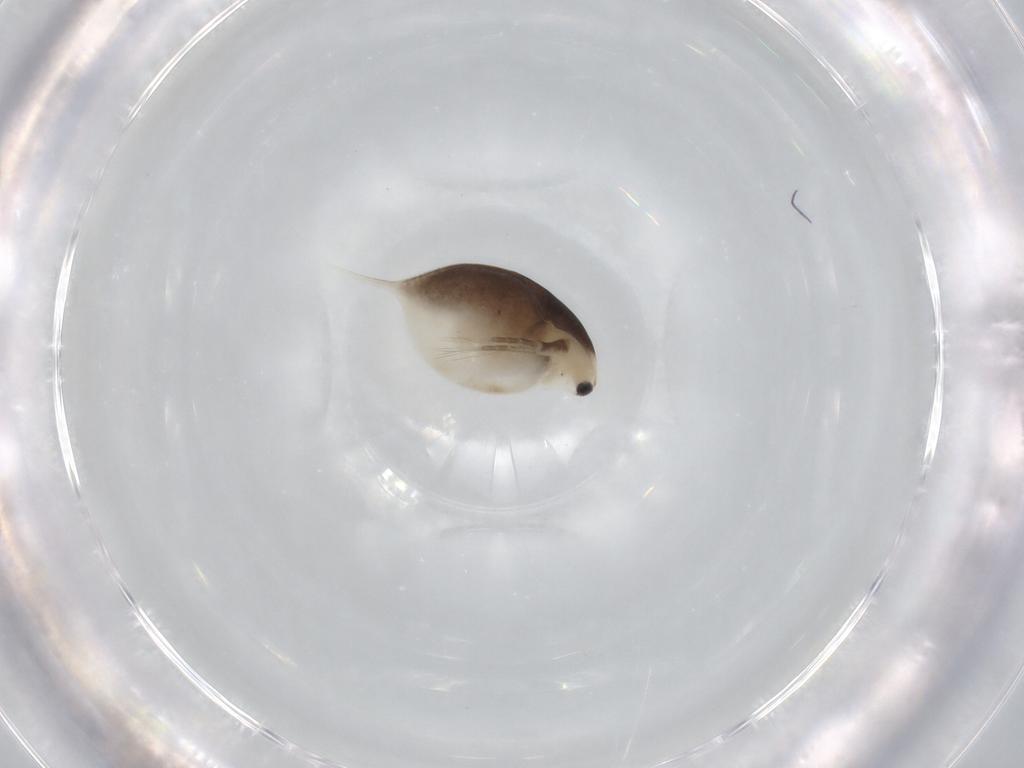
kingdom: Animalia
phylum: Arthropoda
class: Branchiopoda
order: Diplostraca
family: Daphniidae
